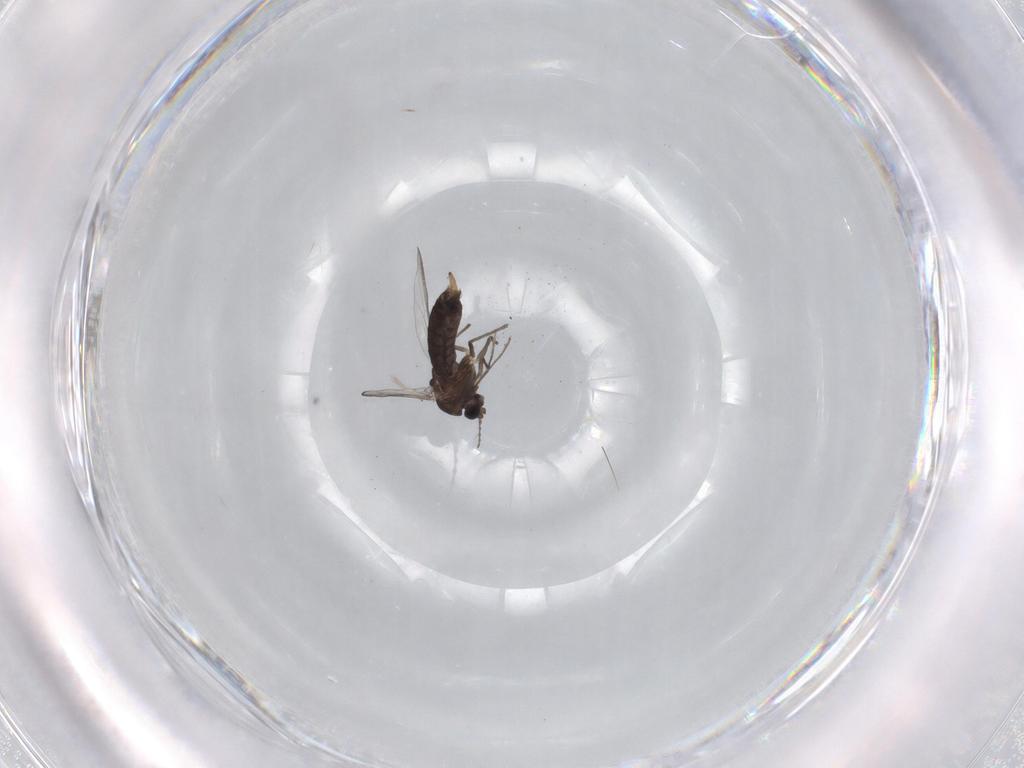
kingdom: Animalia
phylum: Arthropoda
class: Insecta
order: Diptera
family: Chironomidae
